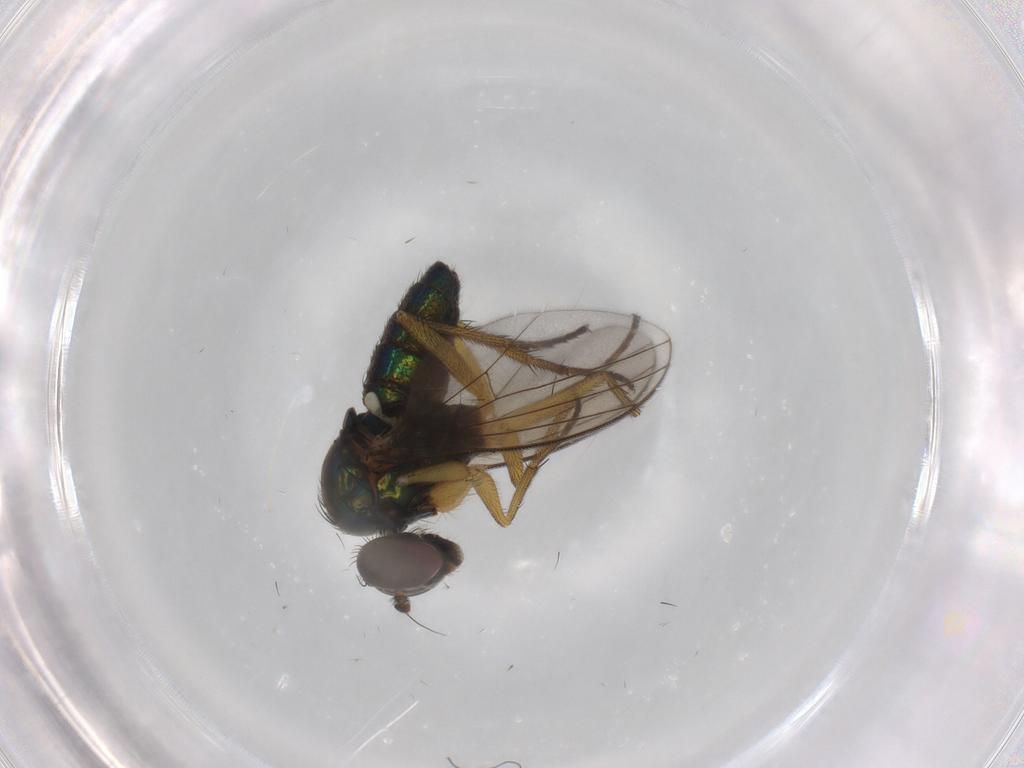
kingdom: Animalia
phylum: Arthropoda
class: Insecta
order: Diptera
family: Dolichopodidae
